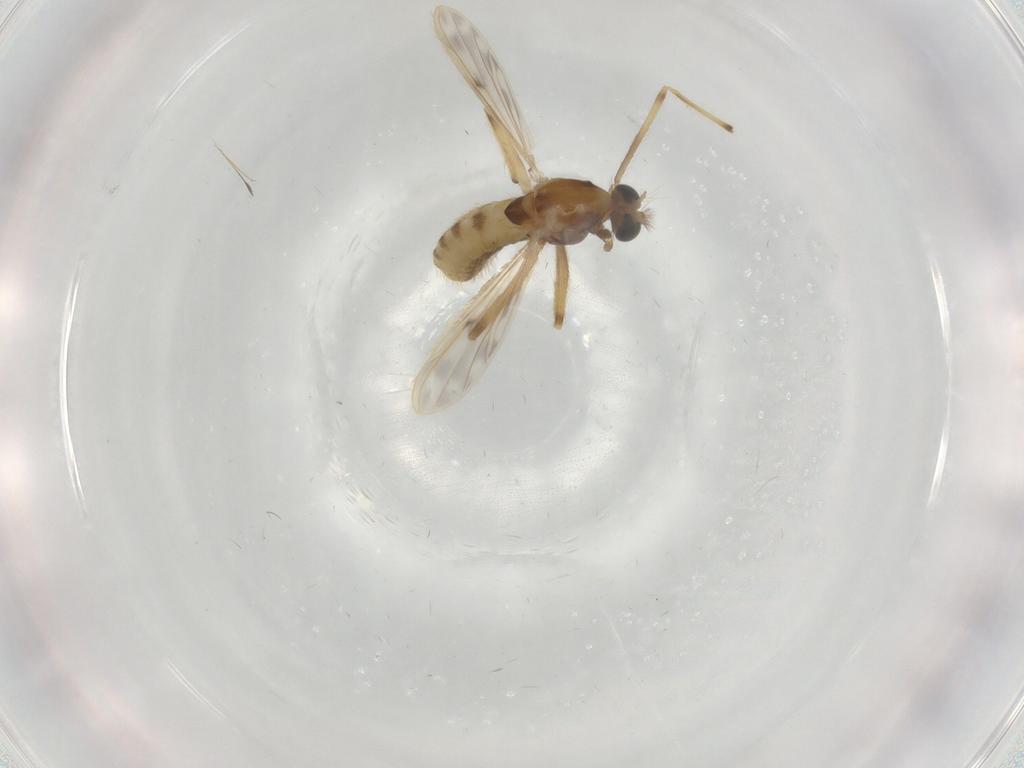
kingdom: Animalia
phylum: Arthropoda
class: Insecta
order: Diptera
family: Chironomidae
